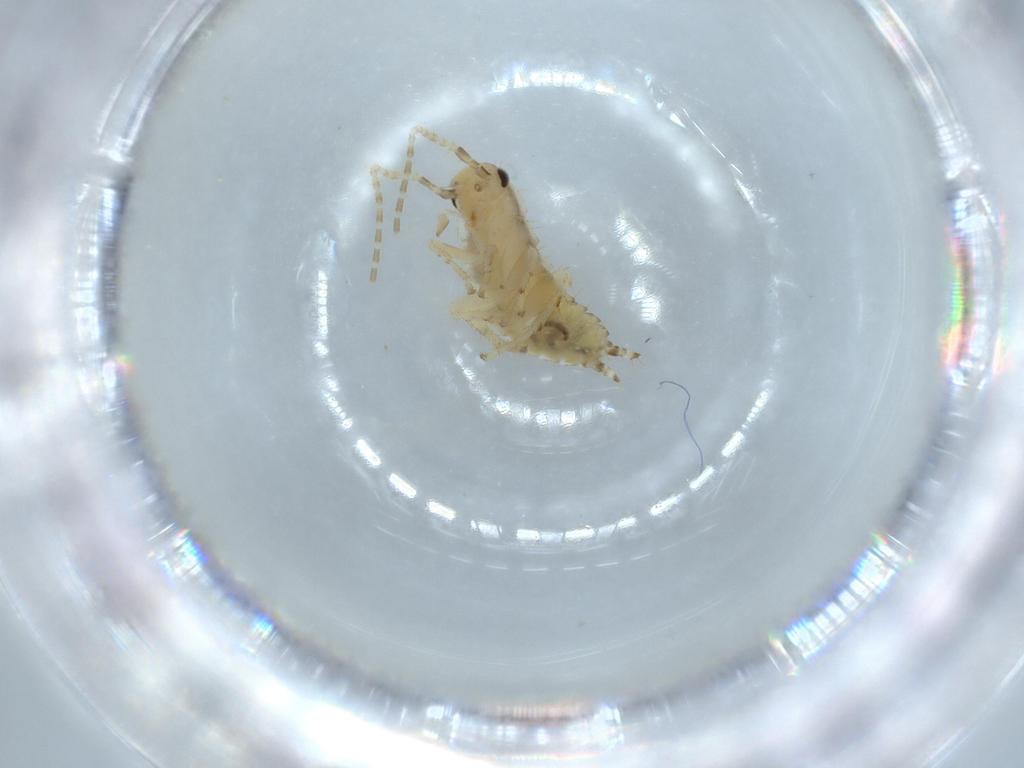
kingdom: Animalia
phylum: Arthropoda
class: Insecta
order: Blattodea
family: Ectobiidae
